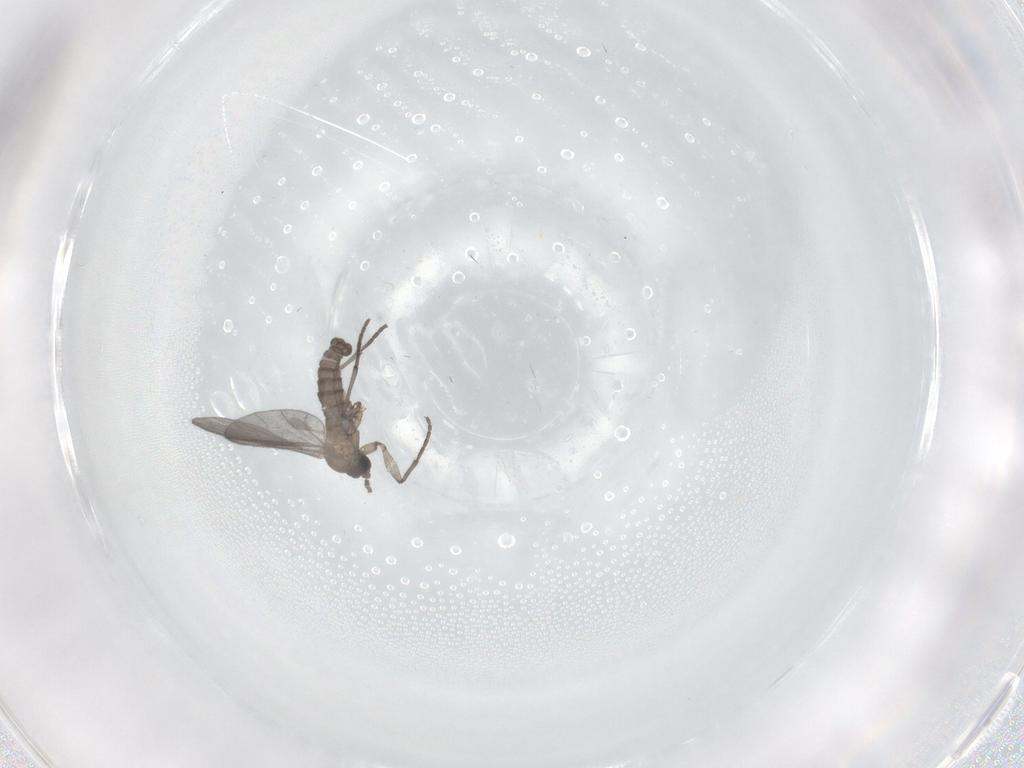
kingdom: Animalia
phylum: Arthropoda
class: Insecta
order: Diptera
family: Sciaridae
